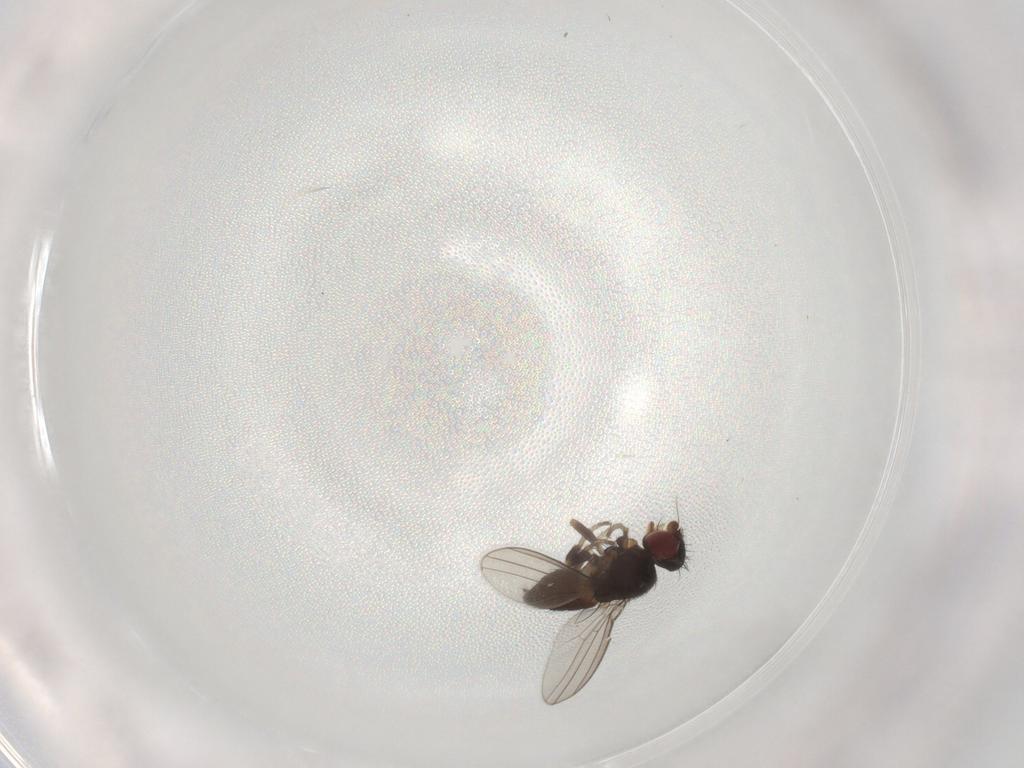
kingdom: Animalia
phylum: Arthropoda
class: Insecta
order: Diptera
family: Milichiidae
